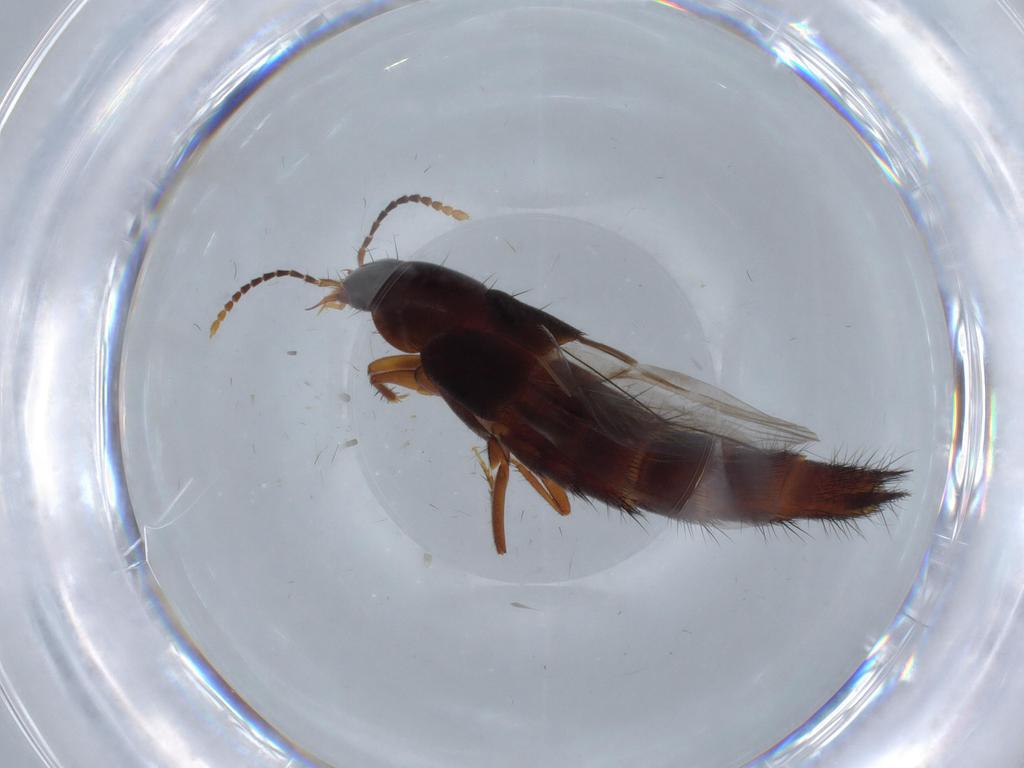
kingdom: Animalia
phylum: Arthropoda
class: Insecta
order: Coleoptera
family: Staphylinidae
